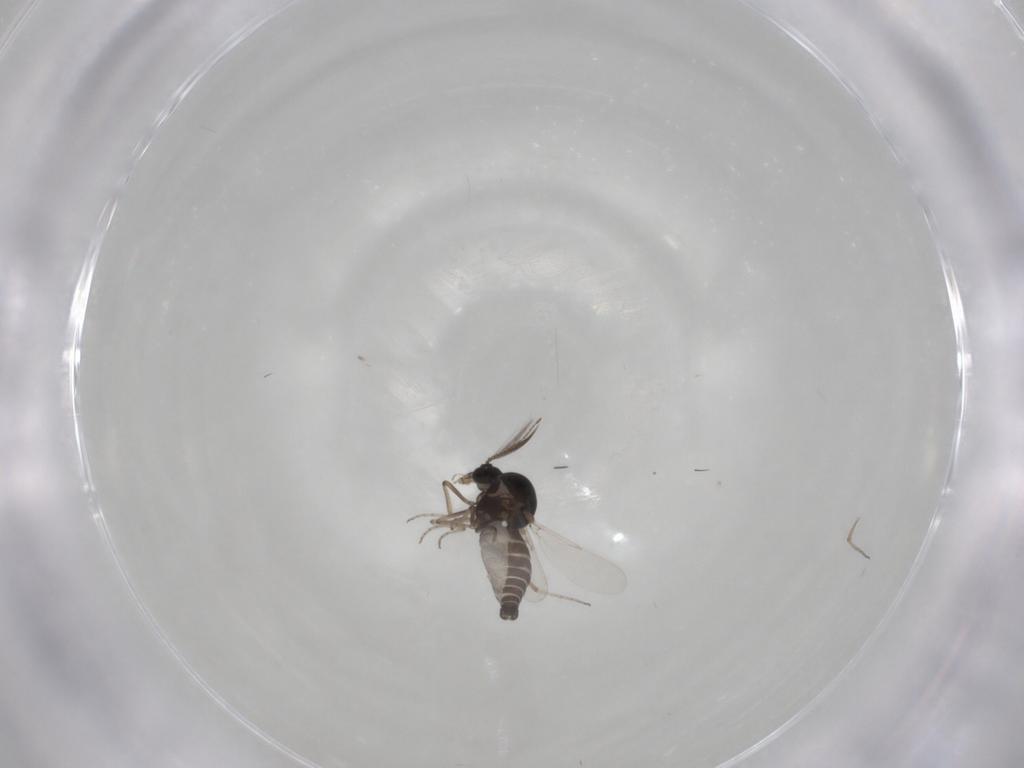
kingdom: Animalia
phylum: Arthropoda
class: Insecta
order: Diptera
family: Ceratopogonidae
